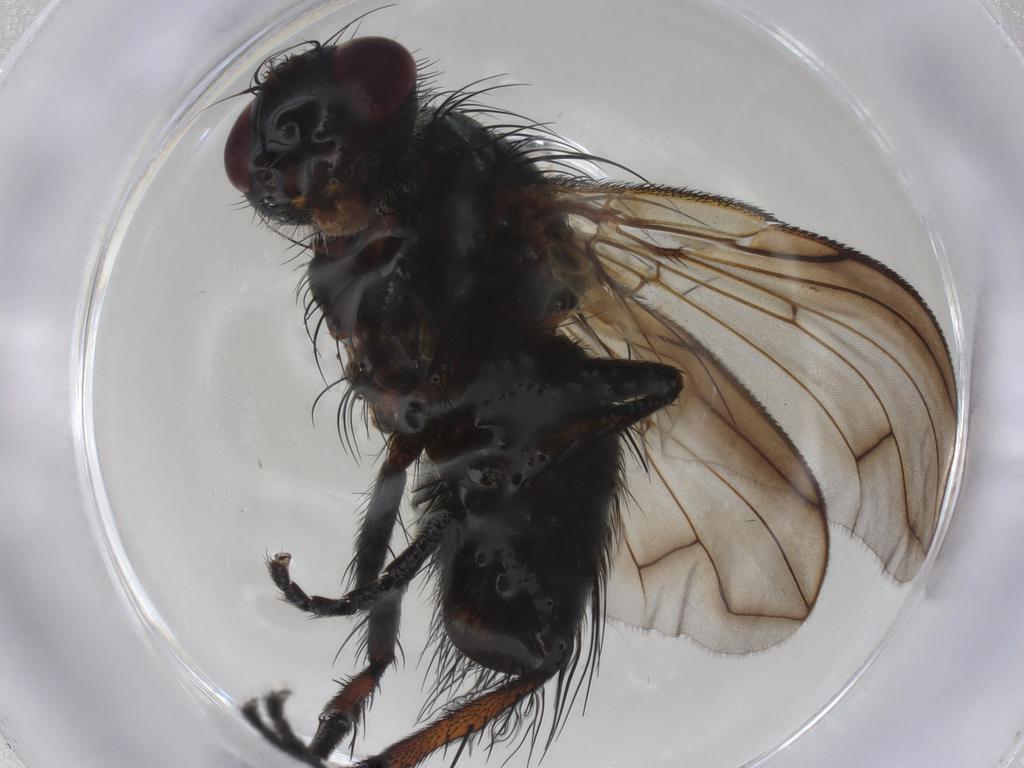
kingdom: Animalia
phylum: Arthropoda
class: Insecta
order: Diptera
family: Tachinidae
